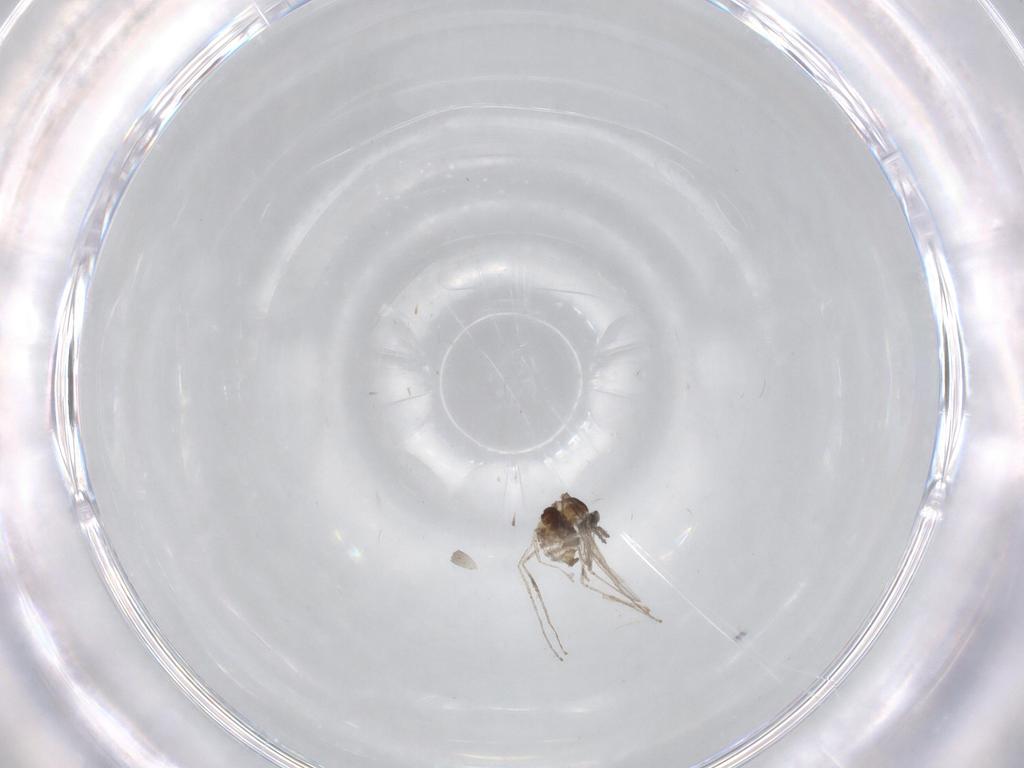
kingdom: Animalia
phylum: Arthropoda
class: Insecta
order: Diptera
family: Chironomidae
